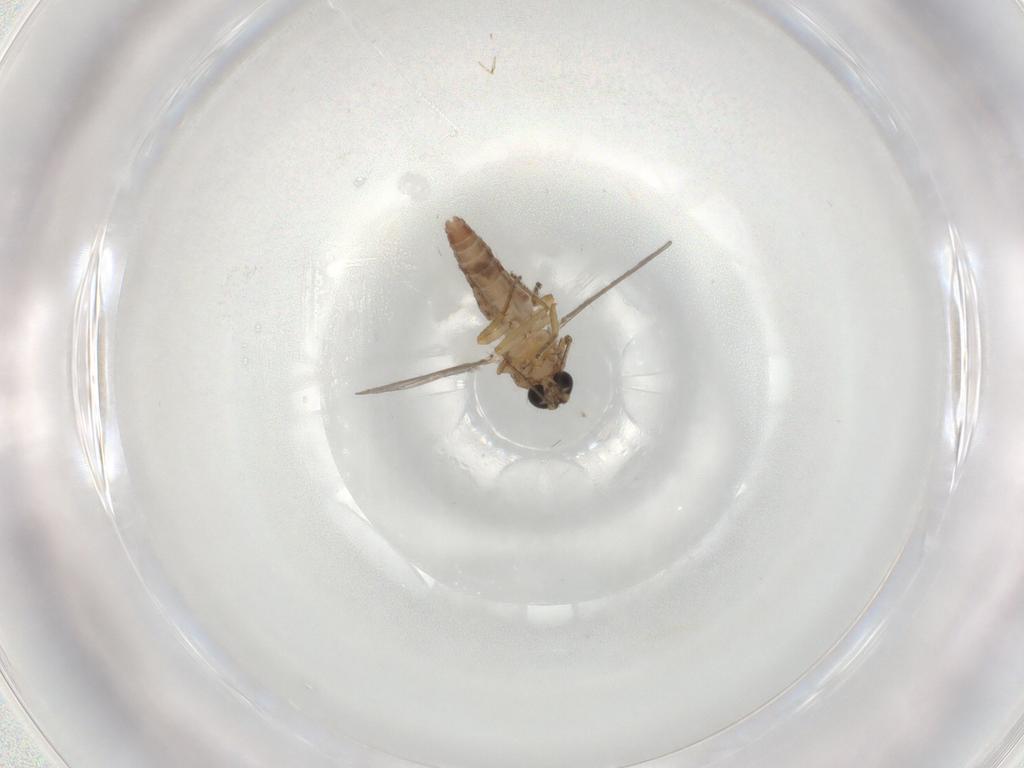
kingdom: Animalia
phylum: Arthropoda
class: Insecta
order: Diptera
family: Ceratopogonidae
